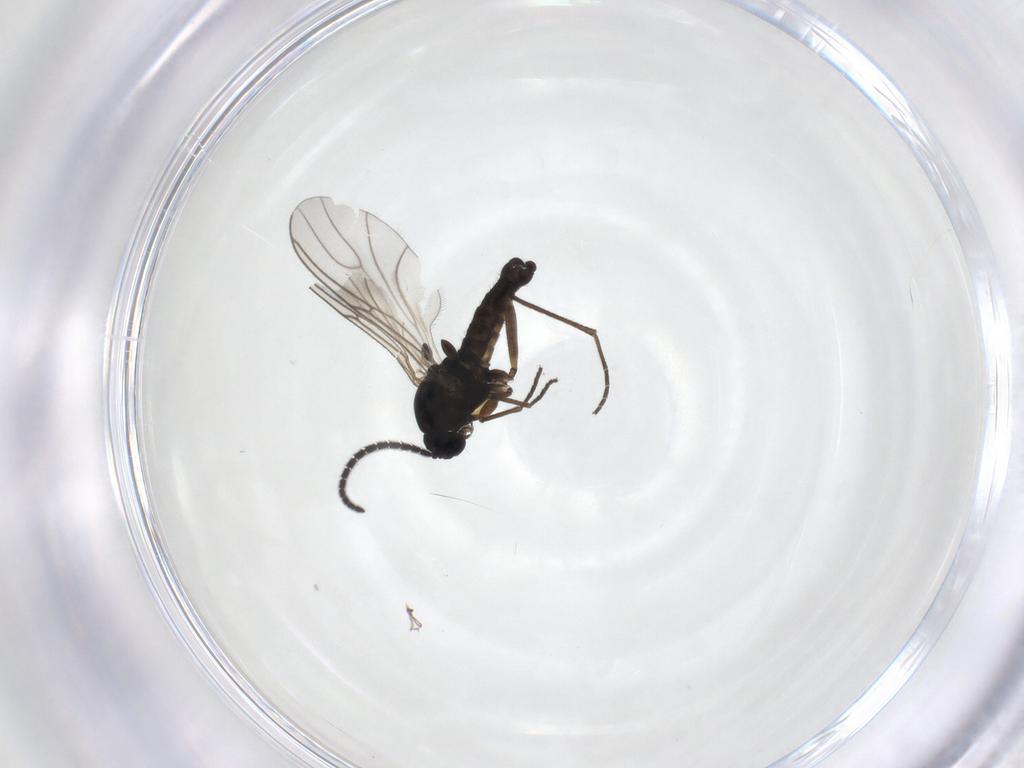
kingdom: Animalia
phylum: Arthropoda
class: Insecta
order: Diptera
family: Sciaridae
